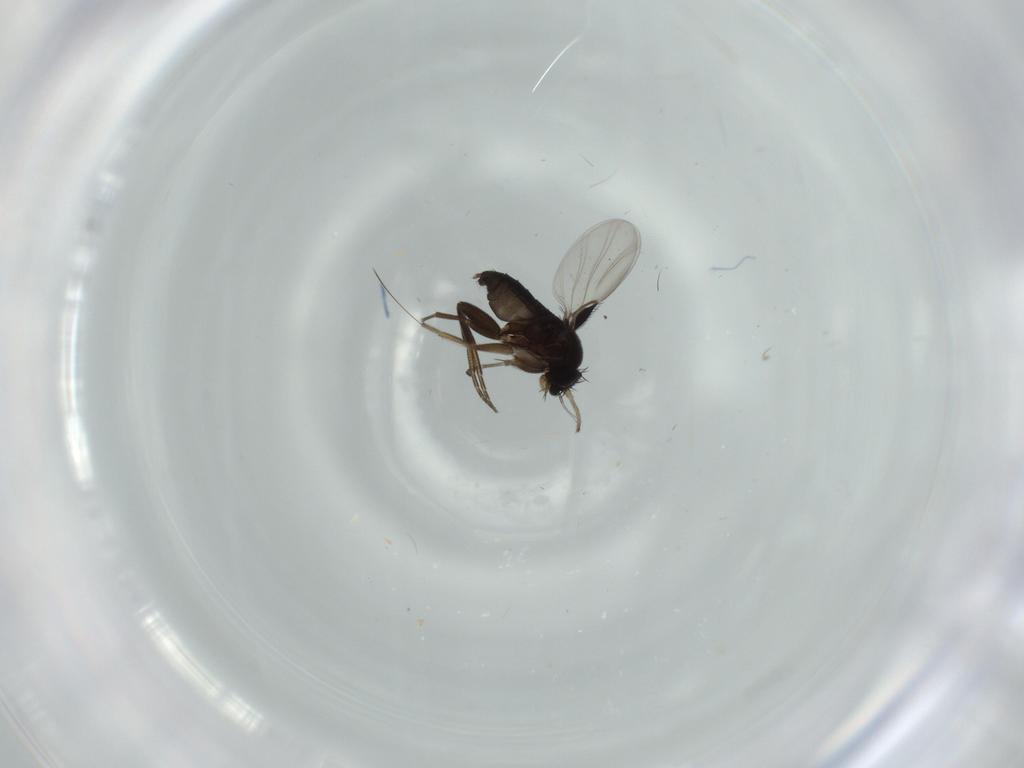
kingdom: Animalia
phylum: Arthropoda
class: Insecta
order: Diptera
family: Phoridae
